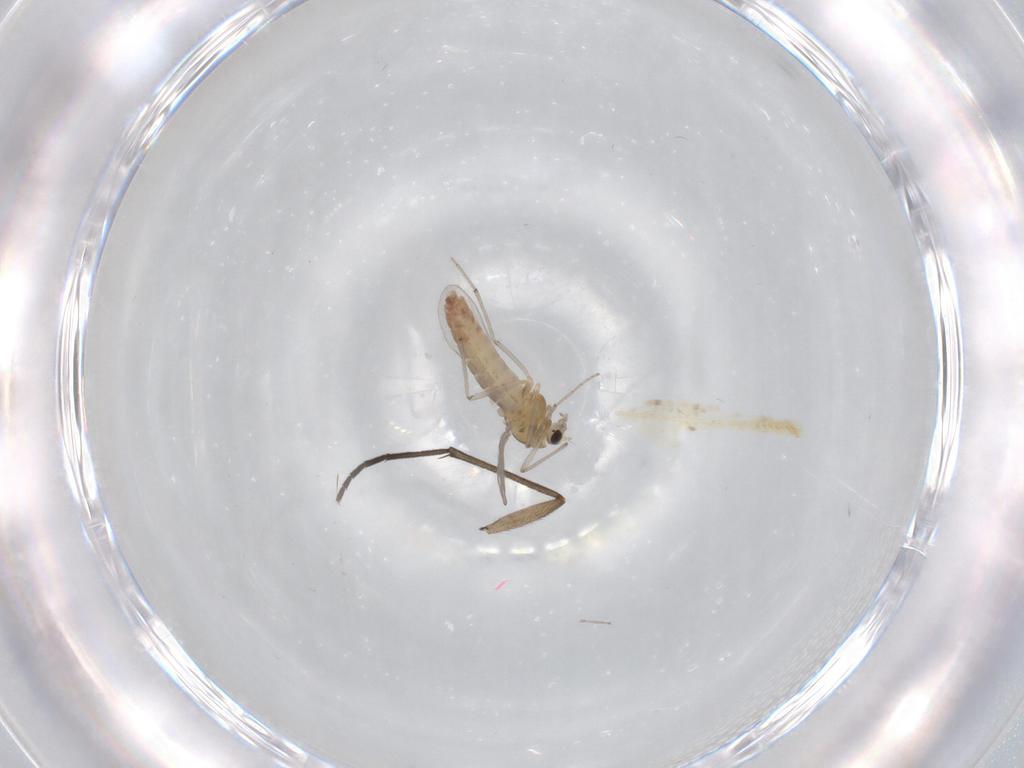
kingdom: Animalia
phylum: Arthropoda
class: Insecta
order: Diptera
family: Chironomidae
